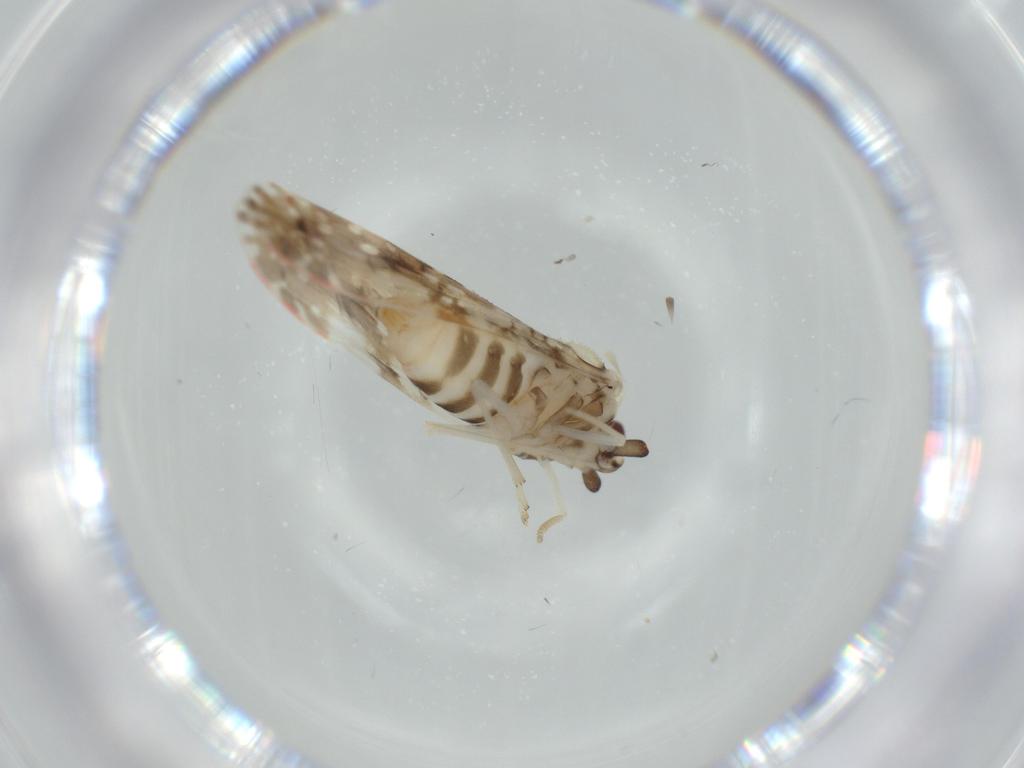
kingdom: Animalia
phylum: Arthropoda
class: Insecta
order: Hemiptera
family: Derbidae
